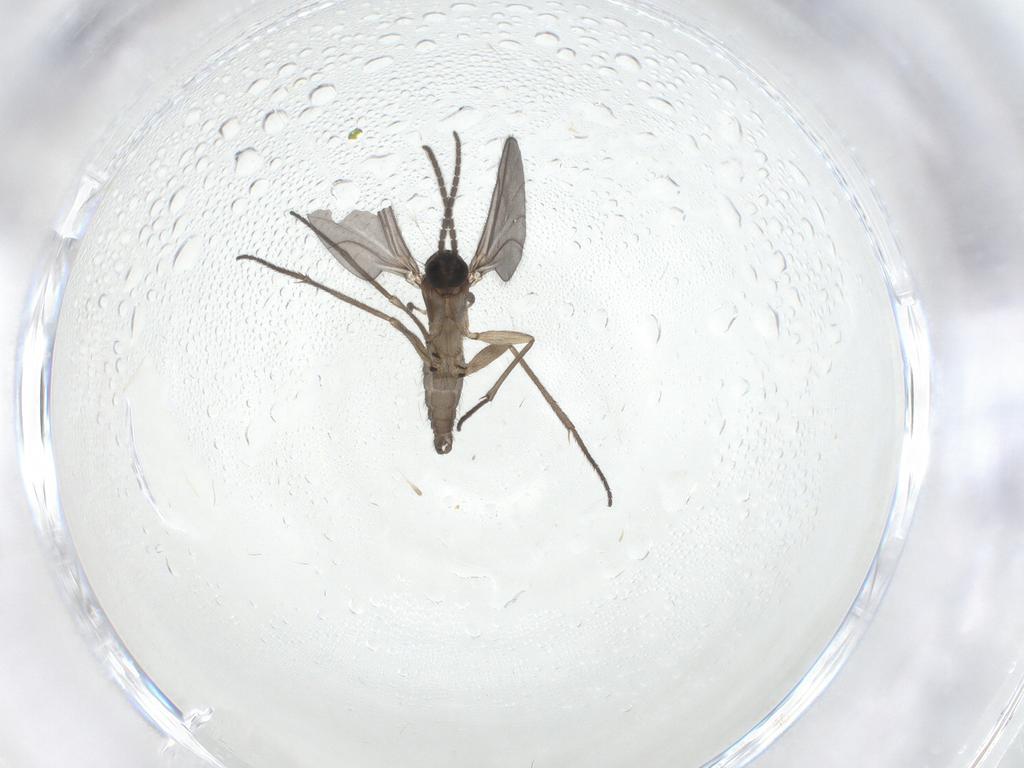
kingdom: Animalia
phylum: Arthropoda
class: Insecta
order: Diptera
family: Sciaridae
